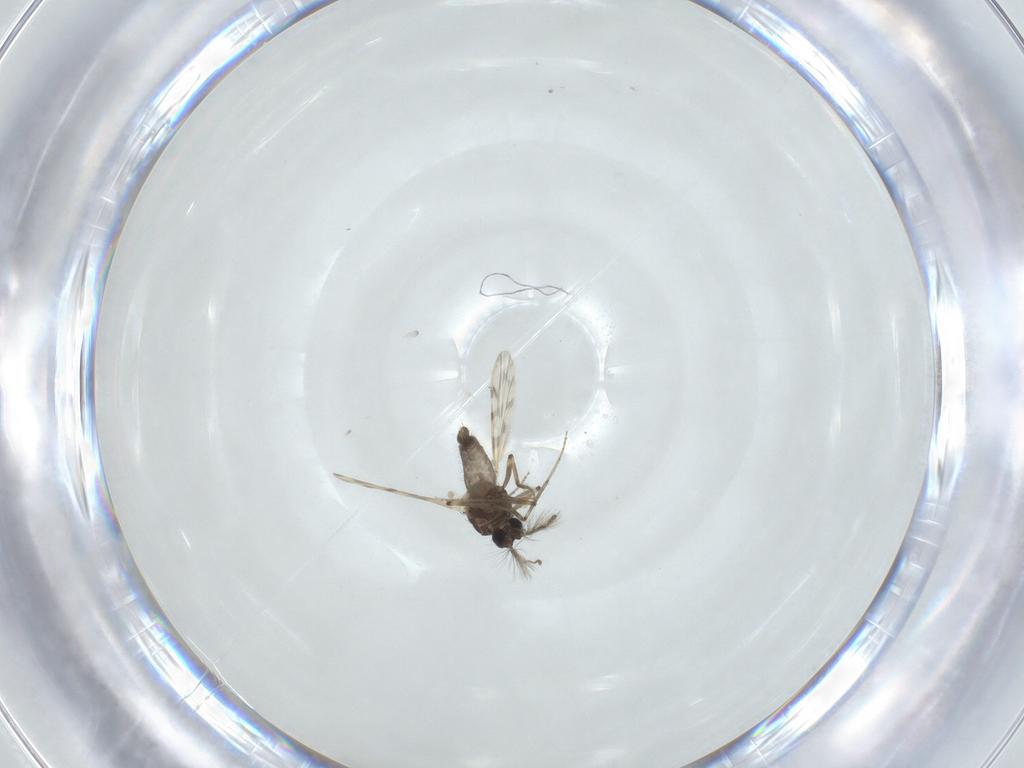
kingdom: Animalia
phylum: Arthropoda
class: Insecta
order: Diptera
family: Ceratopogonidae
